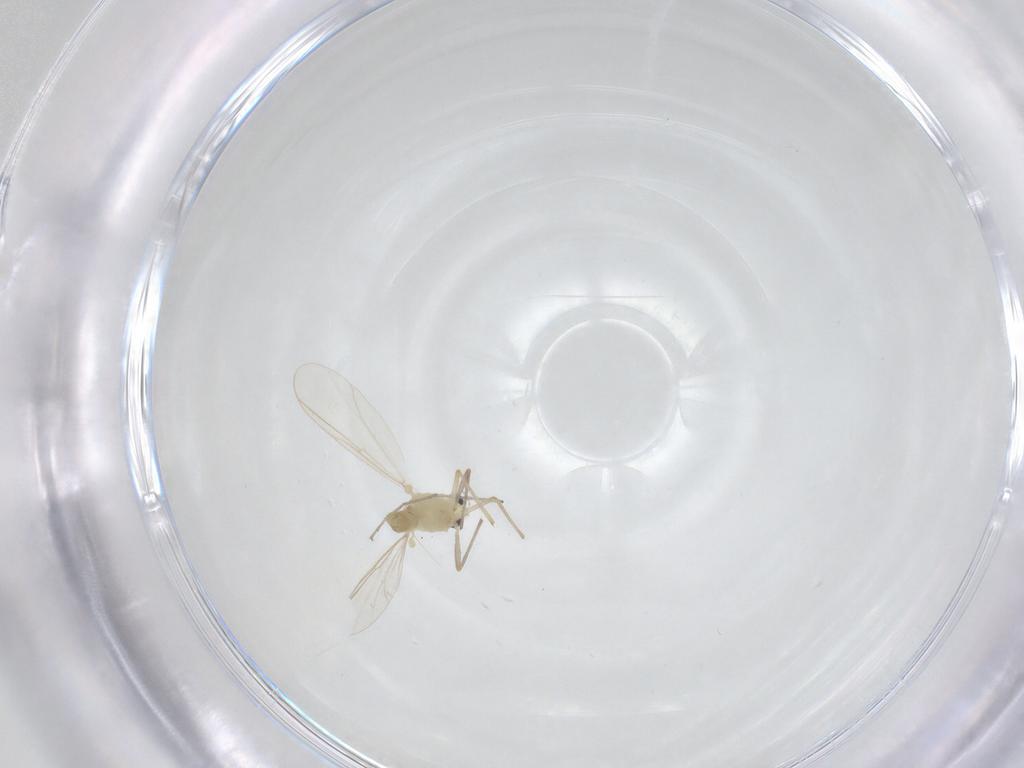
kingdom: Animalia
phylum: Arthropoda
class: Insecta
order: Diptera
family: Chironomidae
